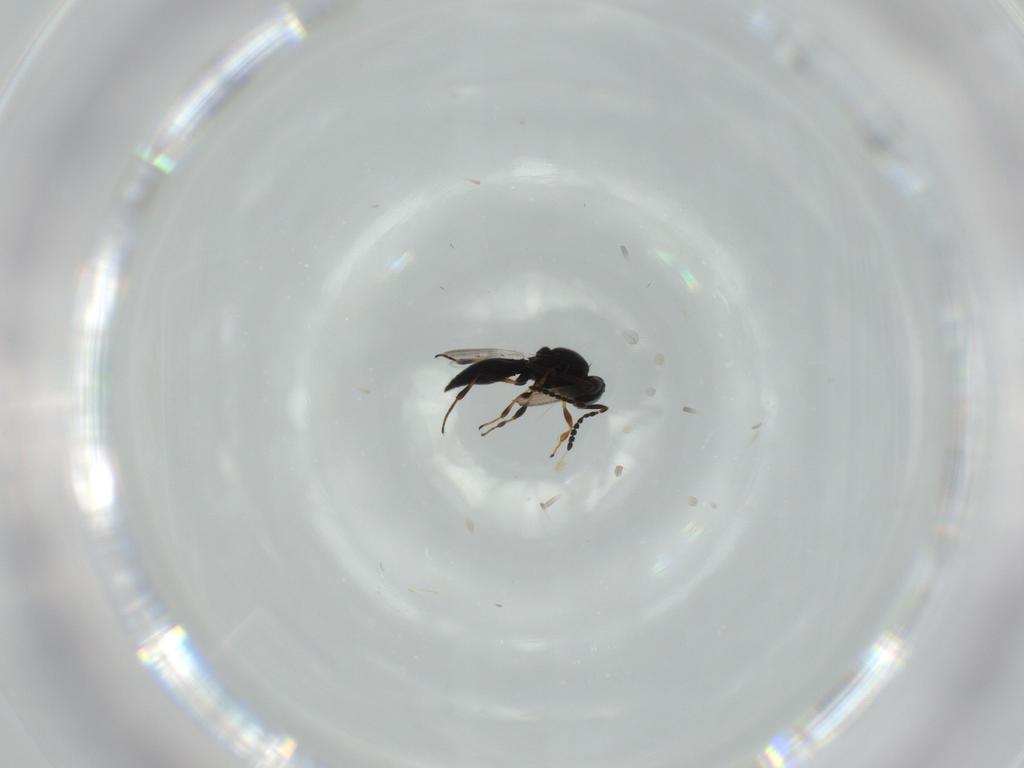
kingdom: Animalia
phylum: Arthropoda
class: Insecta
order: Hymenoptera
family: Platygastridae
